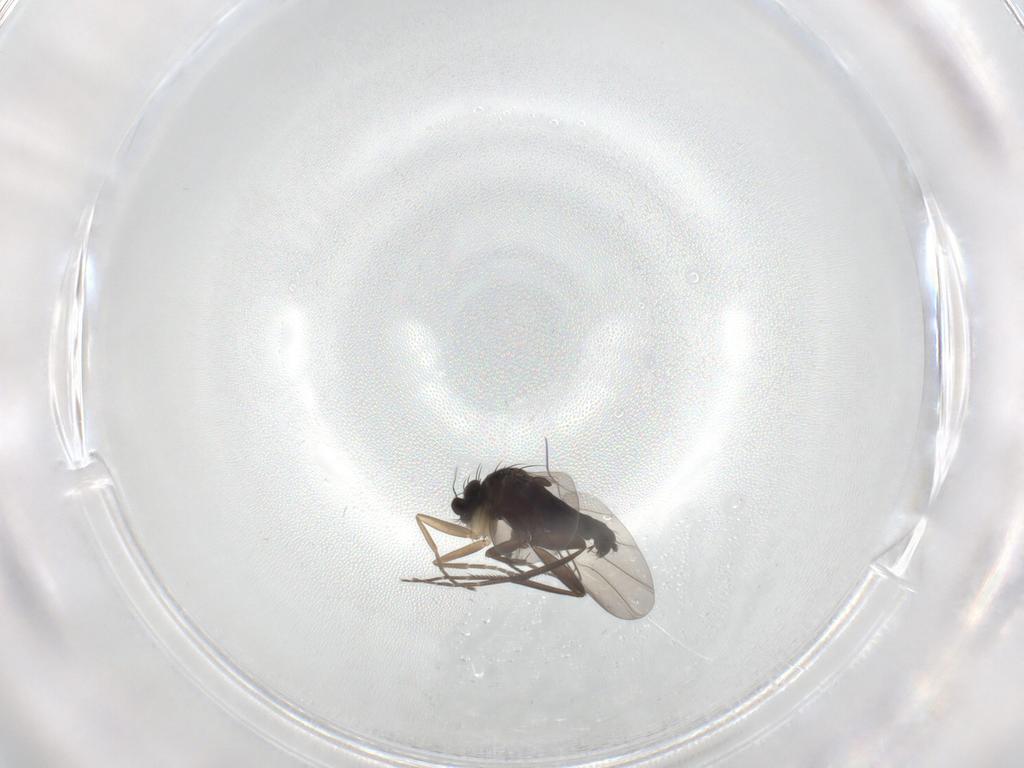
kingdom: Animalia
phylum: Arthropoda
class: Insecta
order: Diptera
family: Phoridae
